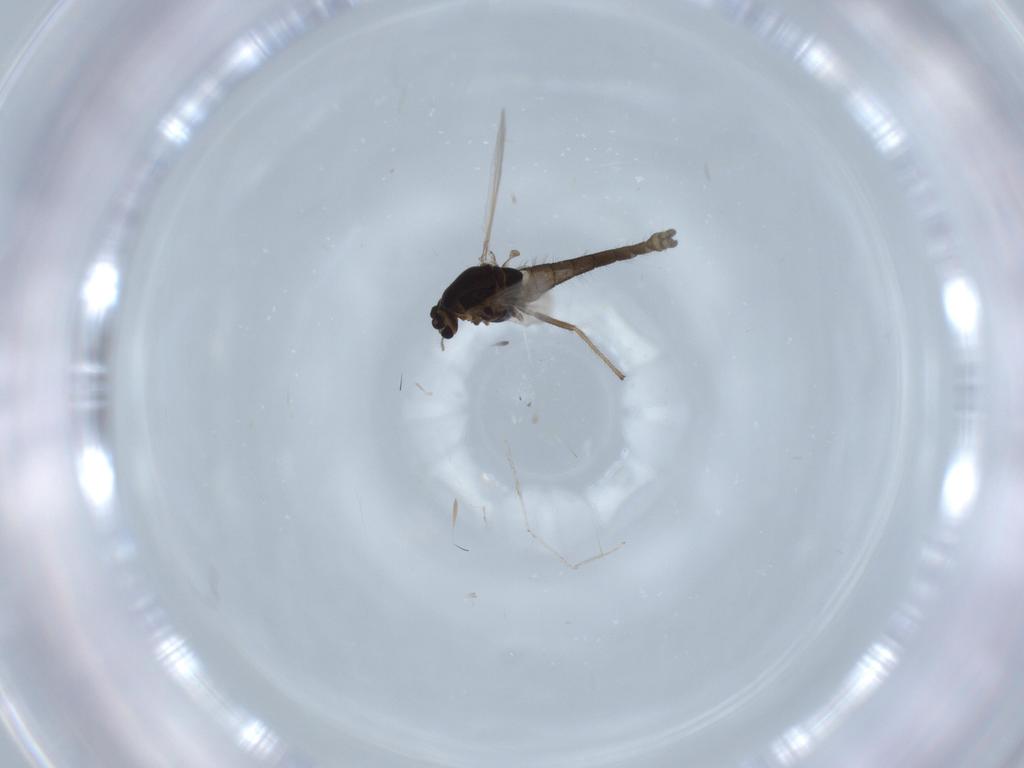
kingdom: Animalia
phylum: Arthropoda
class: Insecta
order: Diptera
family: Chironomidae
